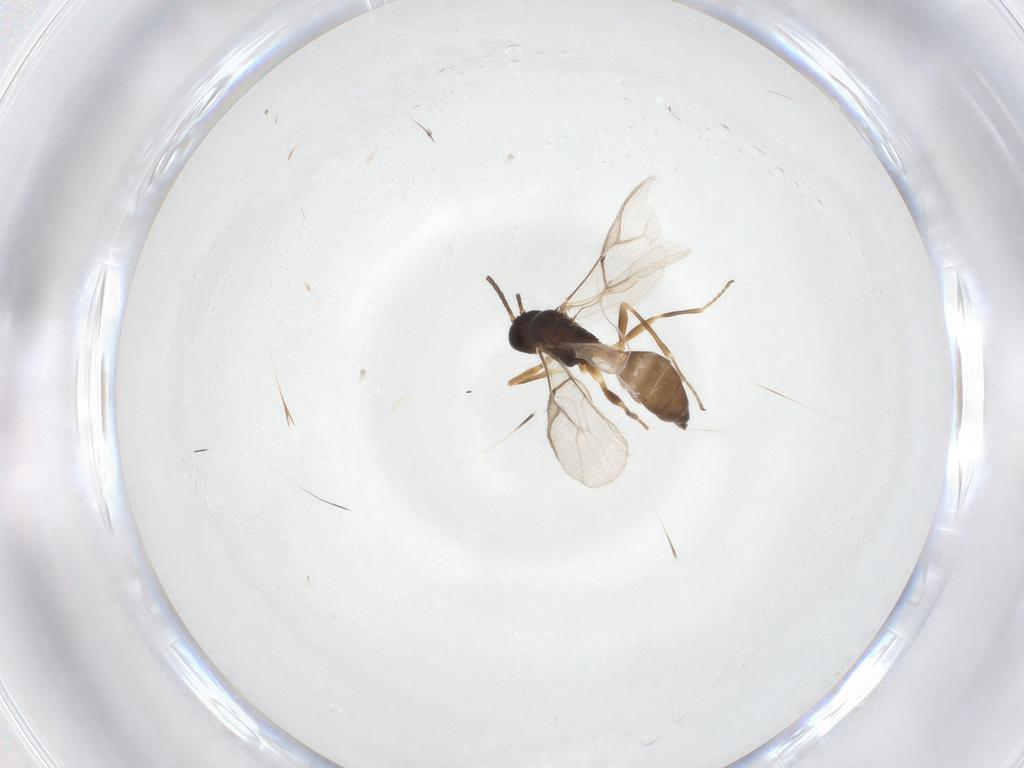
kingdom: Animalia
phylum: Arthropoda
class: Insecta
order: Hymenoptera
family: Braconidae
